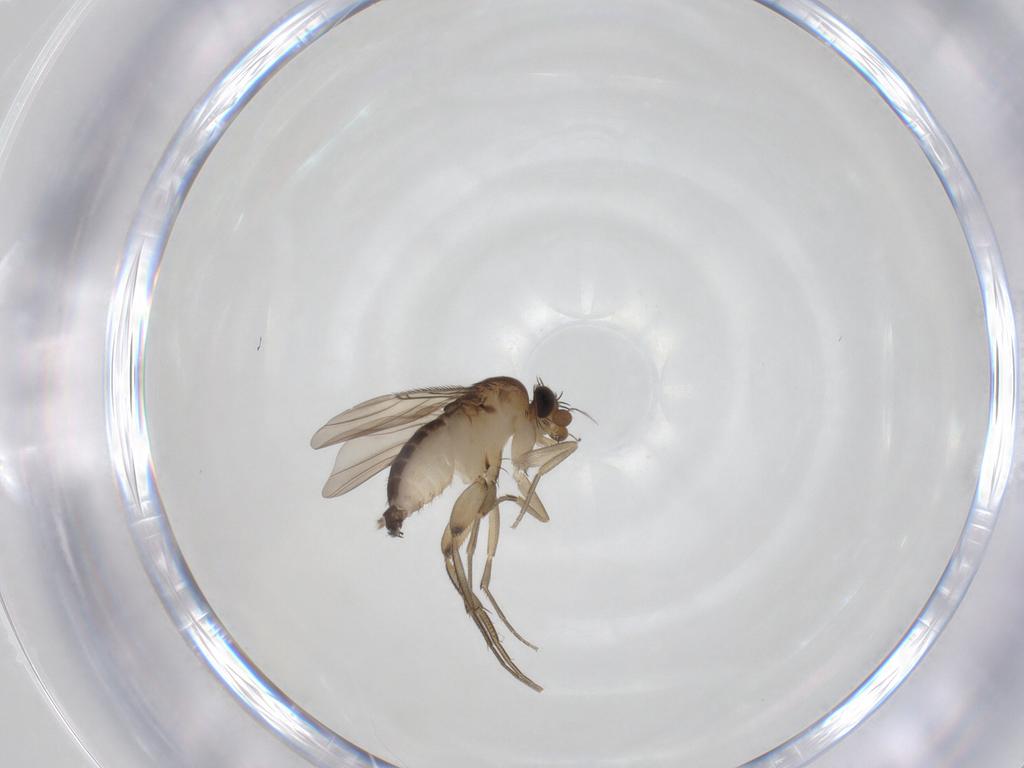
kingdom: Animalia
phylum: Arthropoda
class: Insecta
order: Diptera
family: Phoridae
